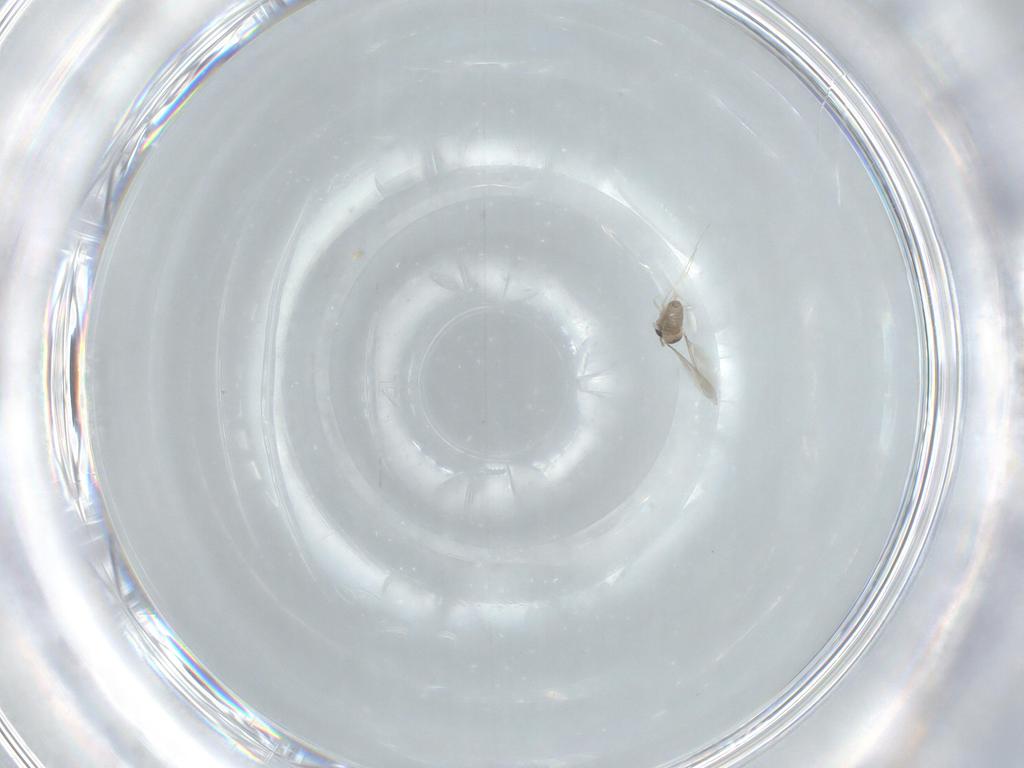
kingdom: Animalia
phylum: Arthropoda
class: Insecta
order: Diptera
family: Cecidomyiidae
